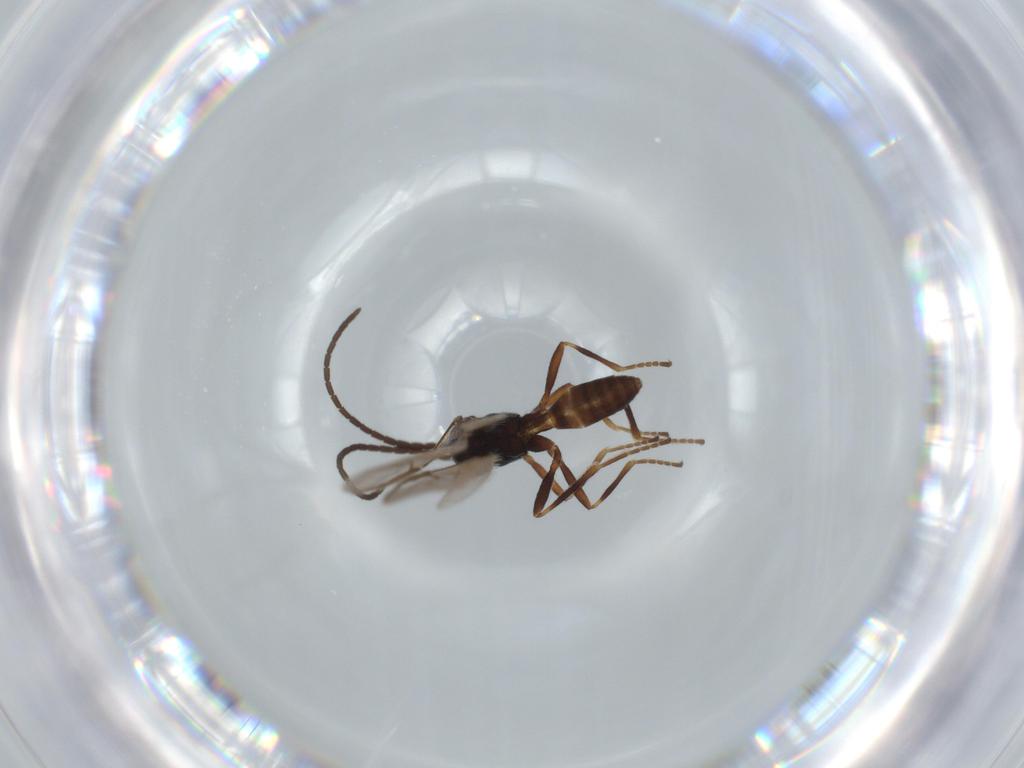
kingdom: Animalia
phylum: Arthropoda
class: Insecta
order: Hymenoptera
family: Braconidae
